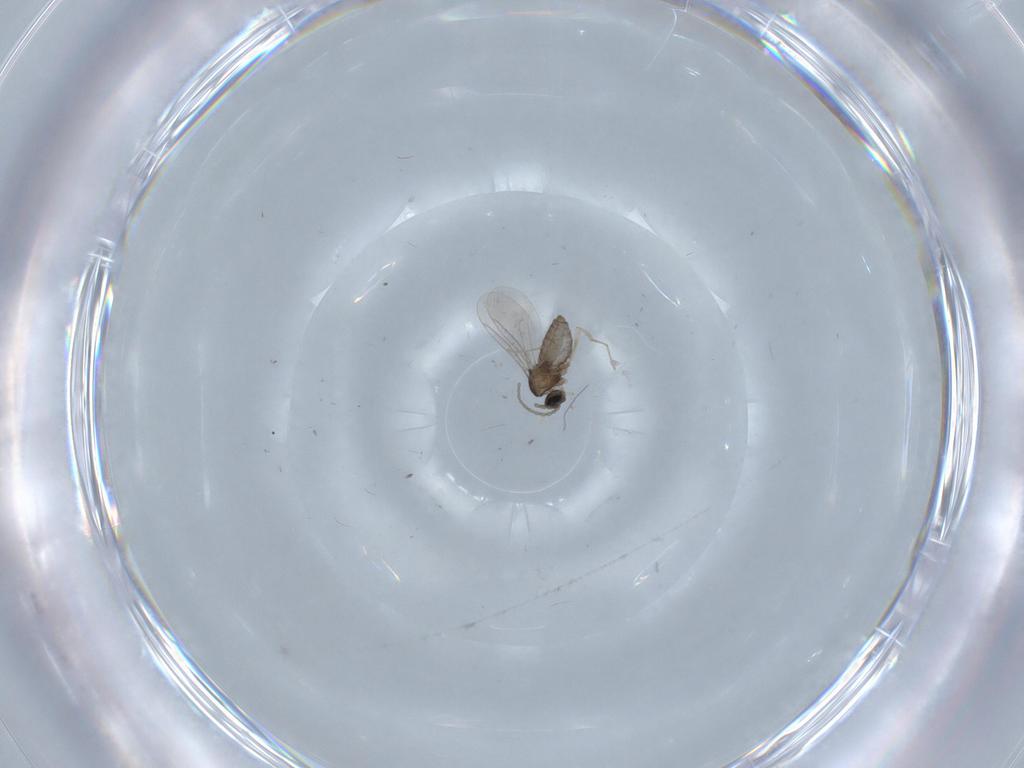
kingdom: Animalia
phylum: Arthropoda
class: Insecta
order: Diptera
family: Cecidomyiidae
